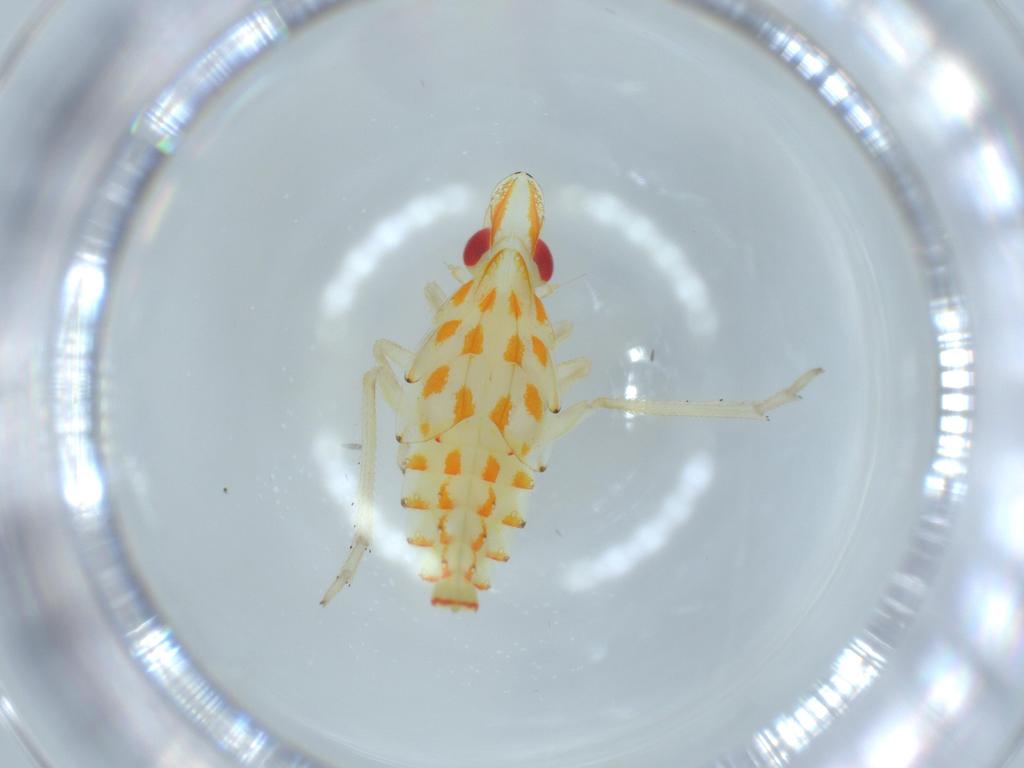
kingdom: Animalia
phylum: Arthropoda
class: Insecta
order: Hemiptera
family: Tropiduchidae
